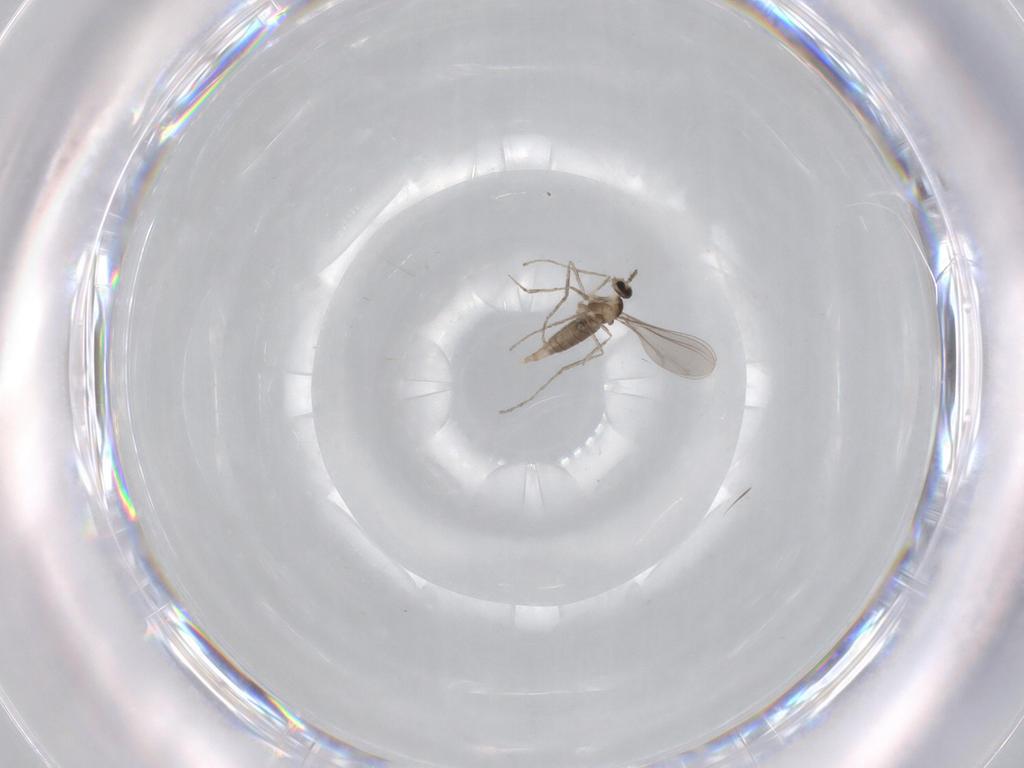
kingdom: Animalia
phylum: Arthropoda
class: Insecta
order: Diptera
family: Dolichopodidae
